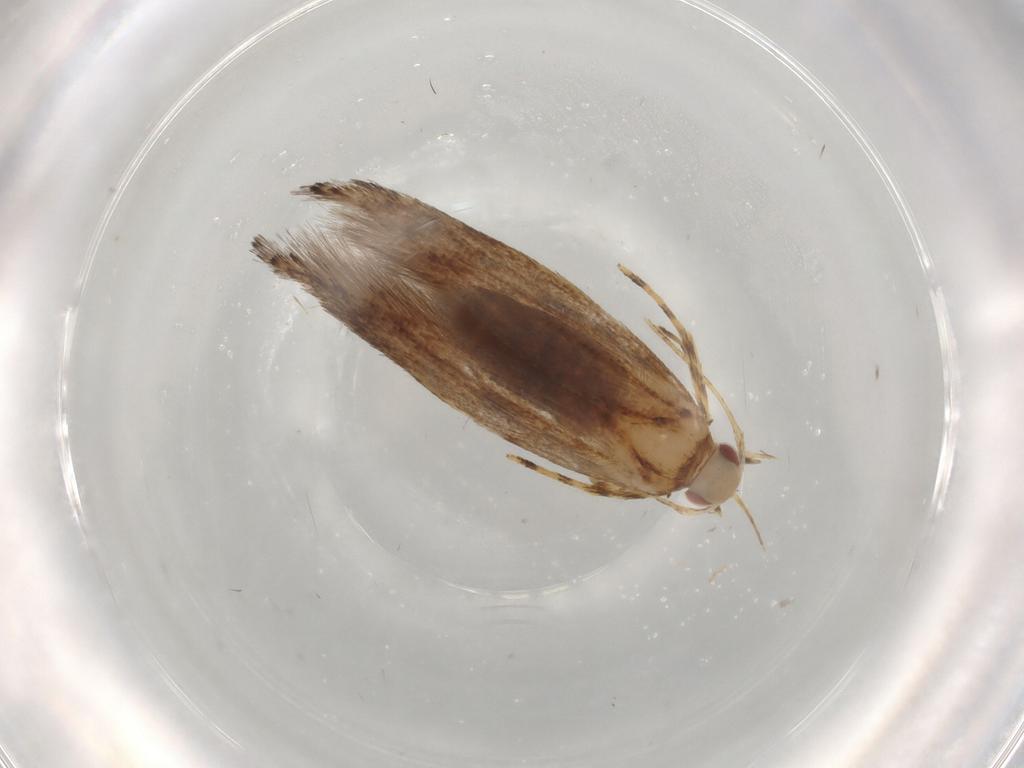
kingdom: Animalia
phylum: Arthropoda
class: Insecta
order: Lepidoptera
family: Cosmopterigidae
